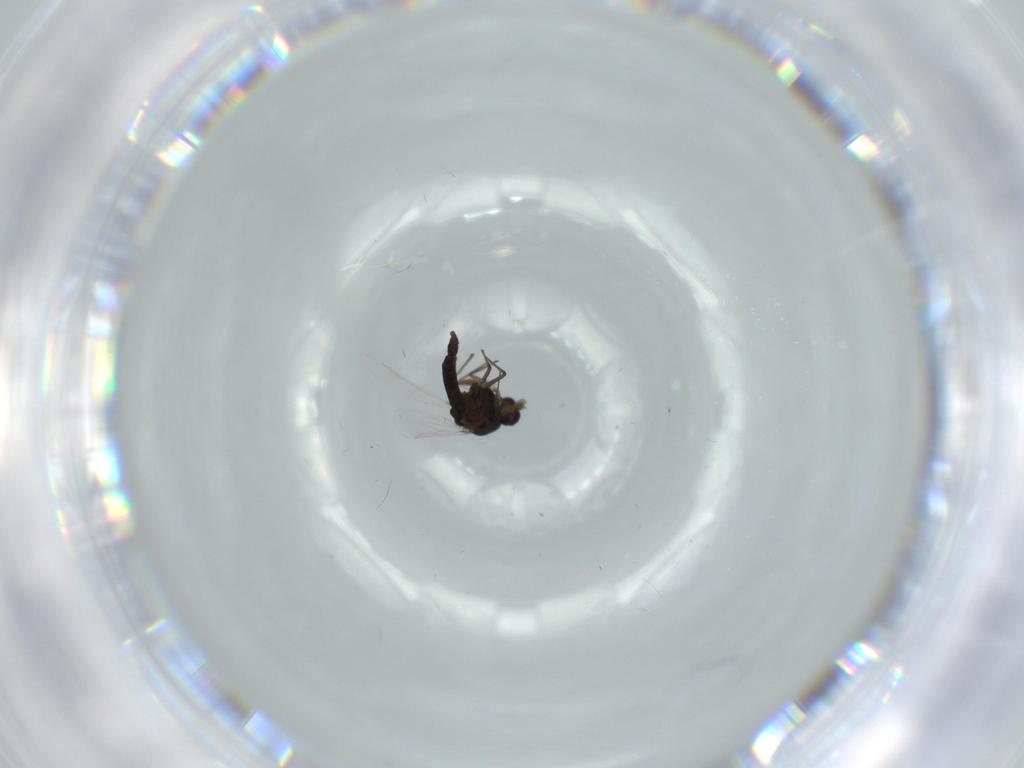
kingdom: Animalia
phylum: Arthropoda
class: Insecta
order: Diptera
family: Chironomidae
